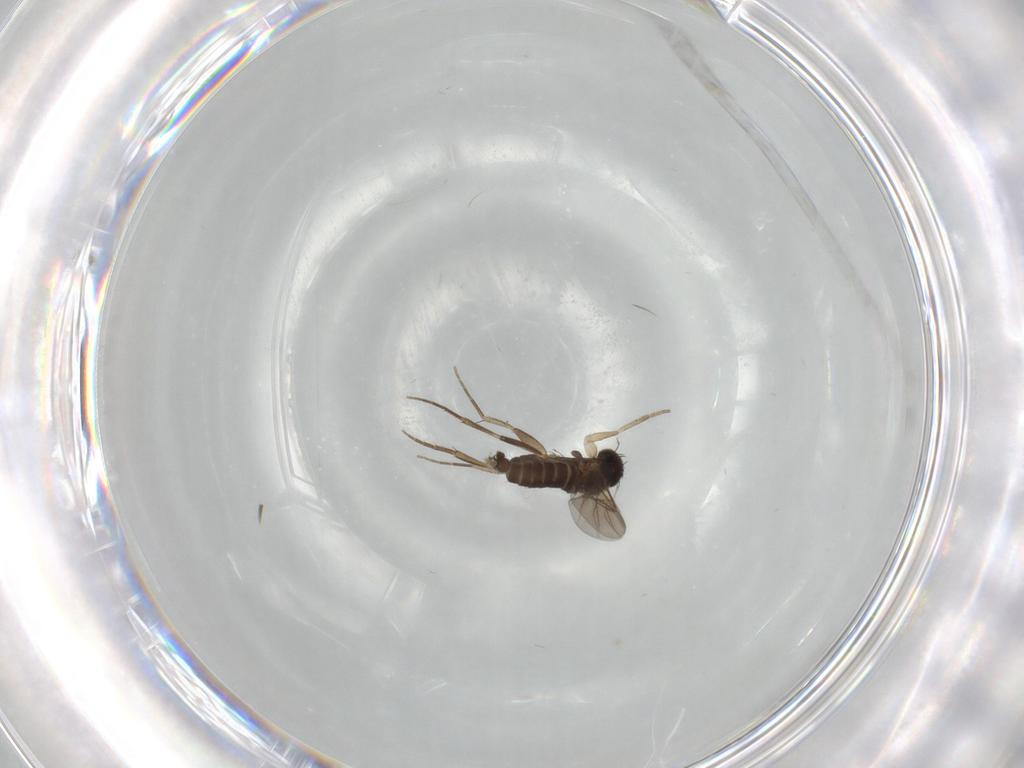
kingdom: Animalia
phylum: Arthropoda
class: Insecta
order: Diptera
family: Phoridae
